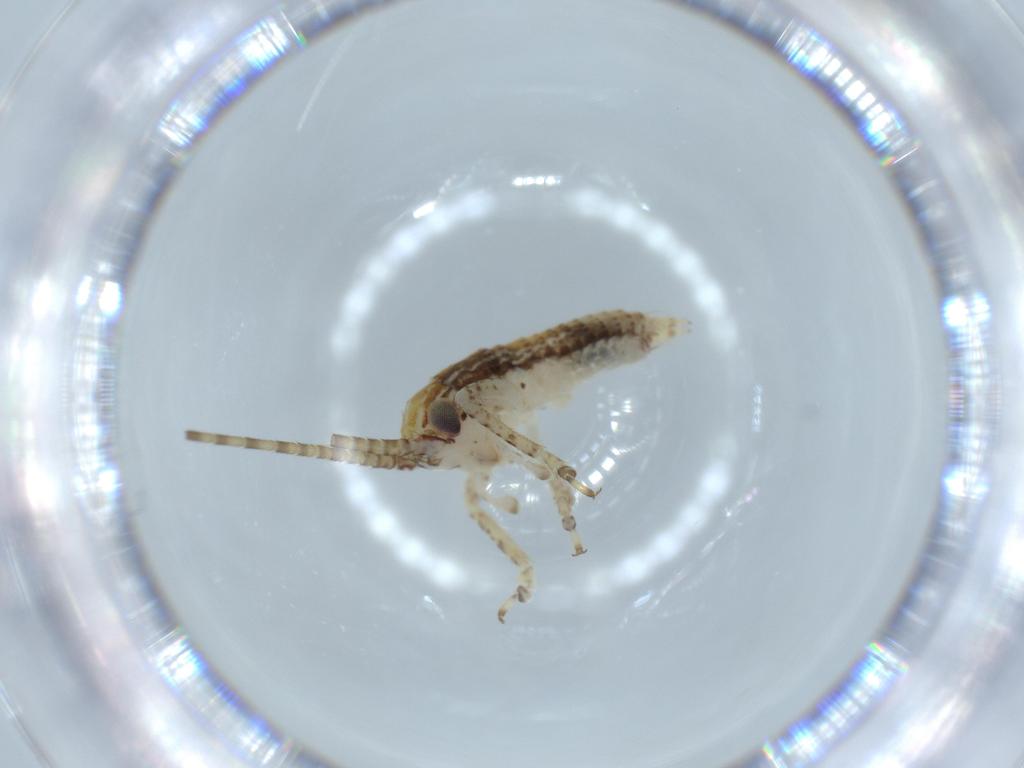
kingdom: Animalia
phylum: Arthropoda
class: Insecta
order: Orthoptera
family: Gryllidae
